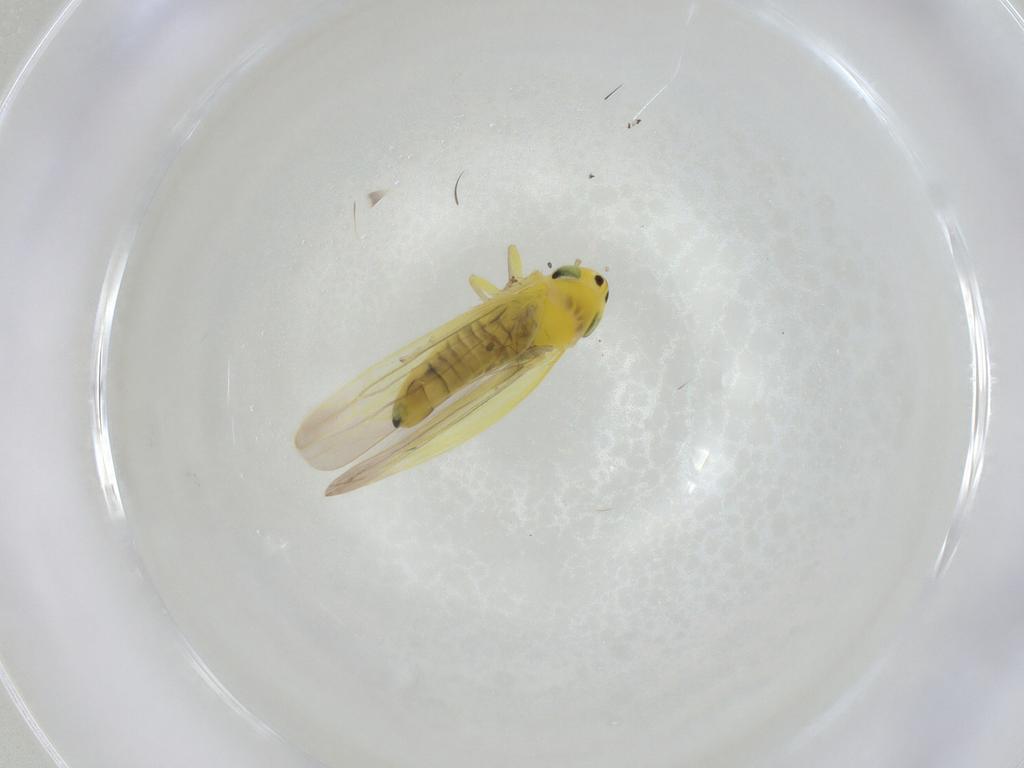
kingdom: Animalia
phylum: Arthropoda
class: Insecta
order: Hemiptera
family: Cicadellidae
